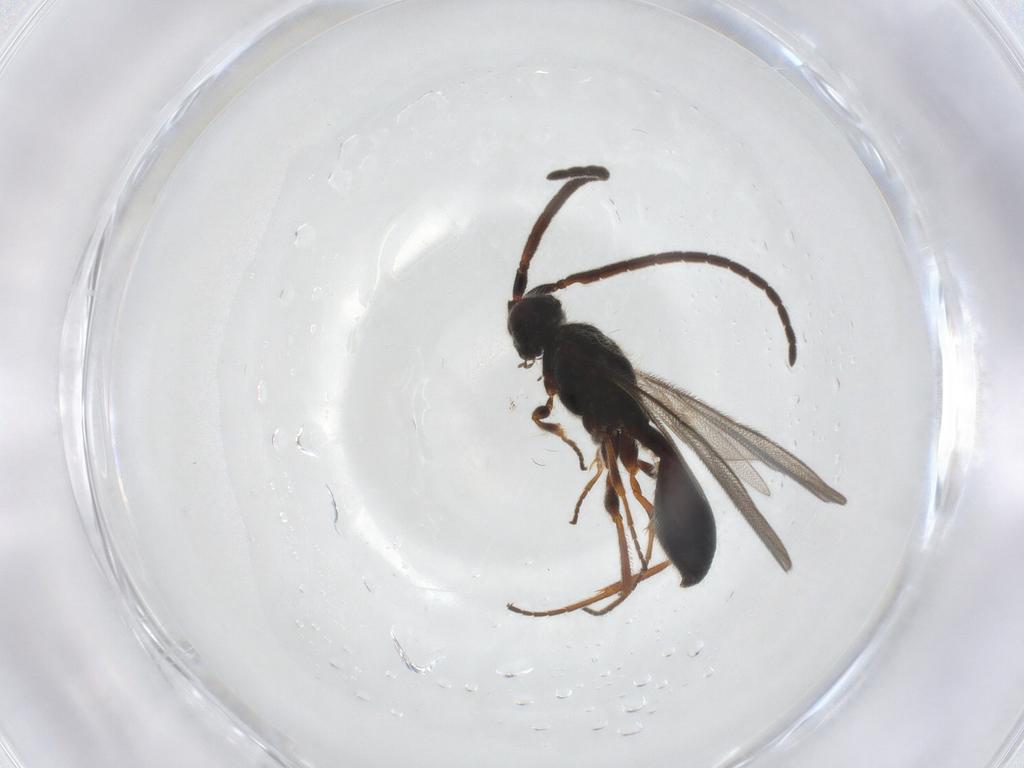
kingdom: Animalia
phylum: Arthropoda
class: Insecta
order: Hymenoptera
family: Diapriidae
